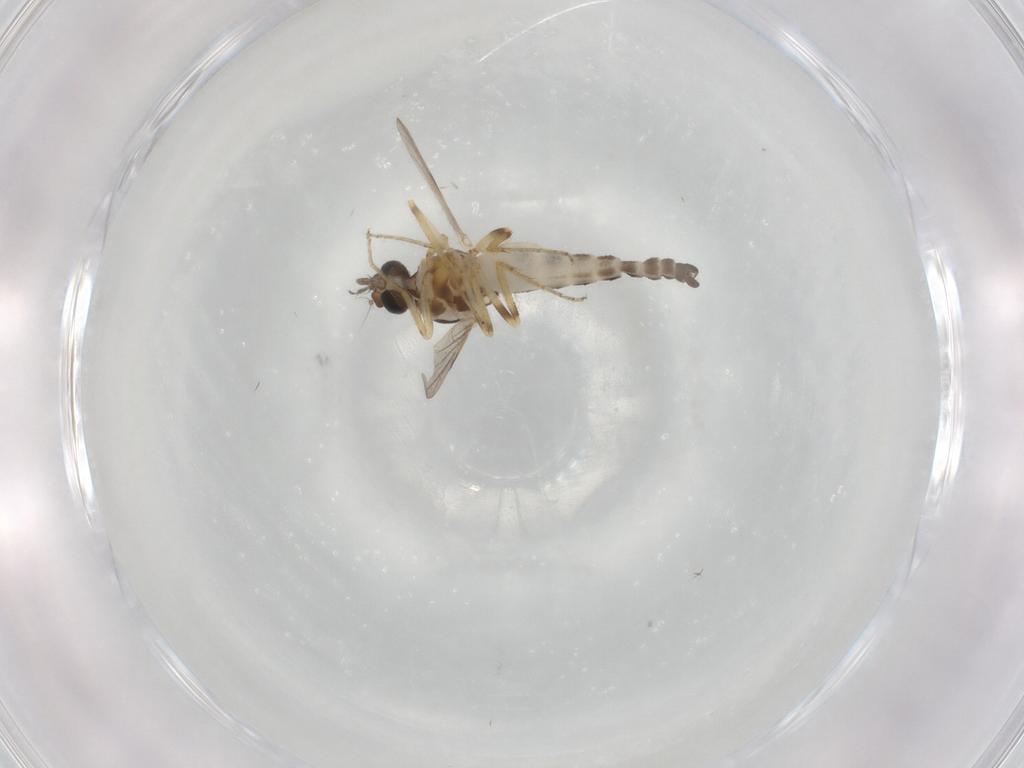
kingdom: Animalia
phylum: Arthropoda
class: Insecta
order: Diptera
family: Ceratopogonidae
